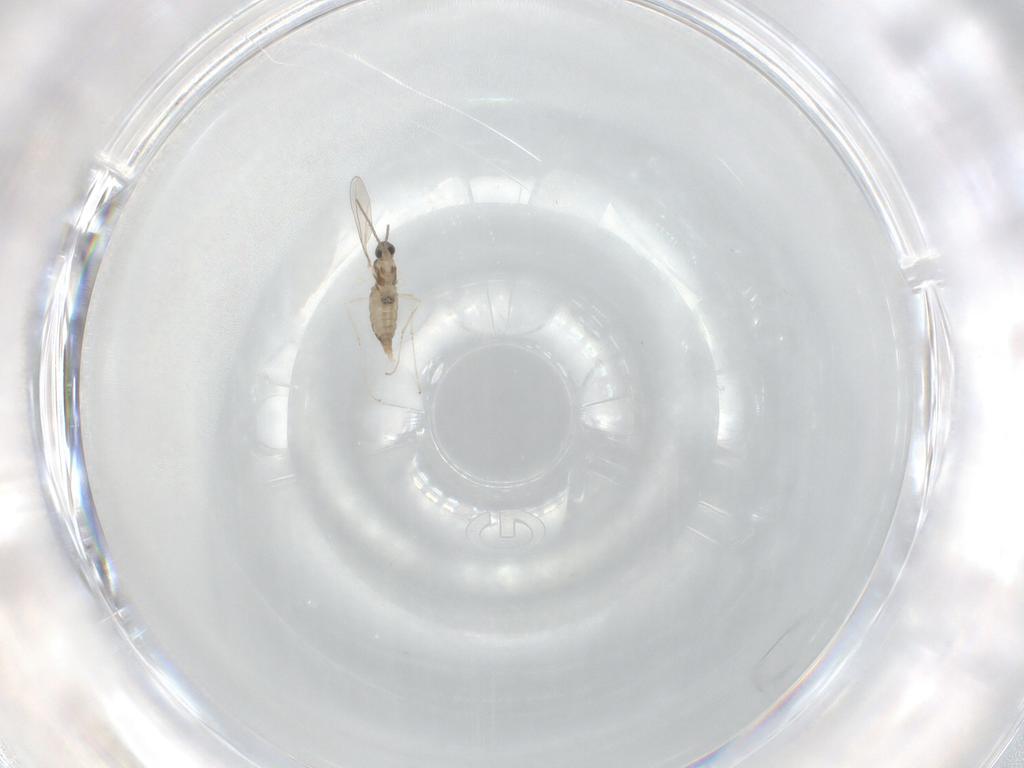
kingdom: Animalia
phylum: Arthropoda
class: Insecta
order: Diptera
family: Cecidomyiidae
